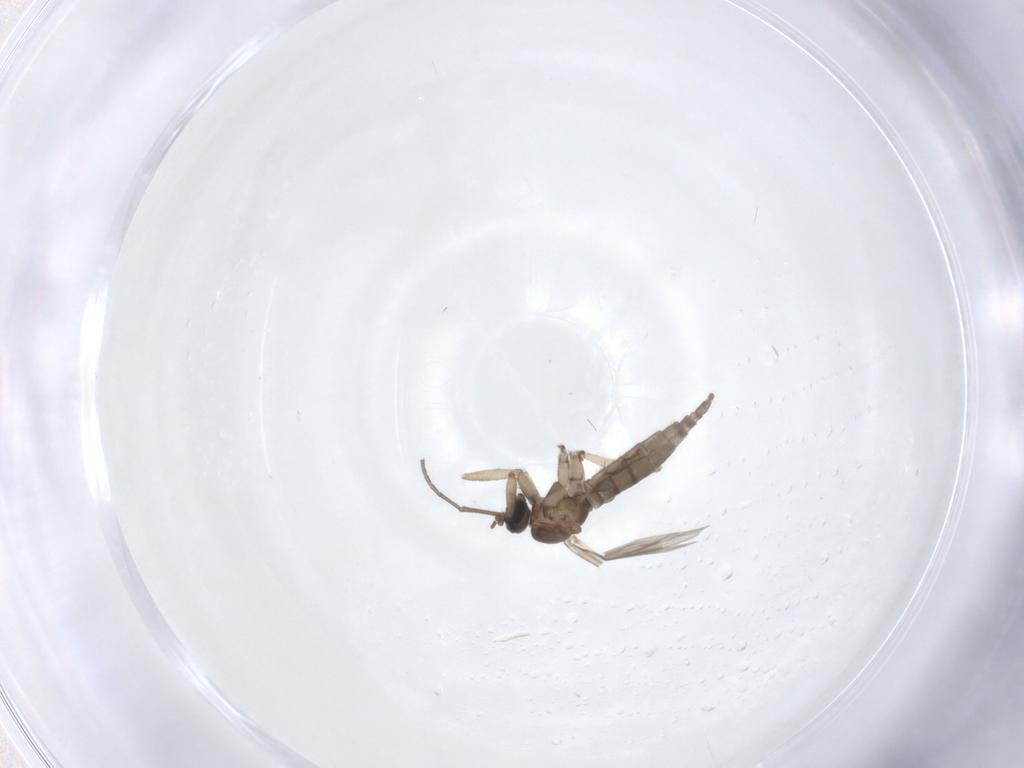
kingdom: Animalia
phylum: Arthropoda
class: Insecta
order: Diptera
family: Sciaridae
